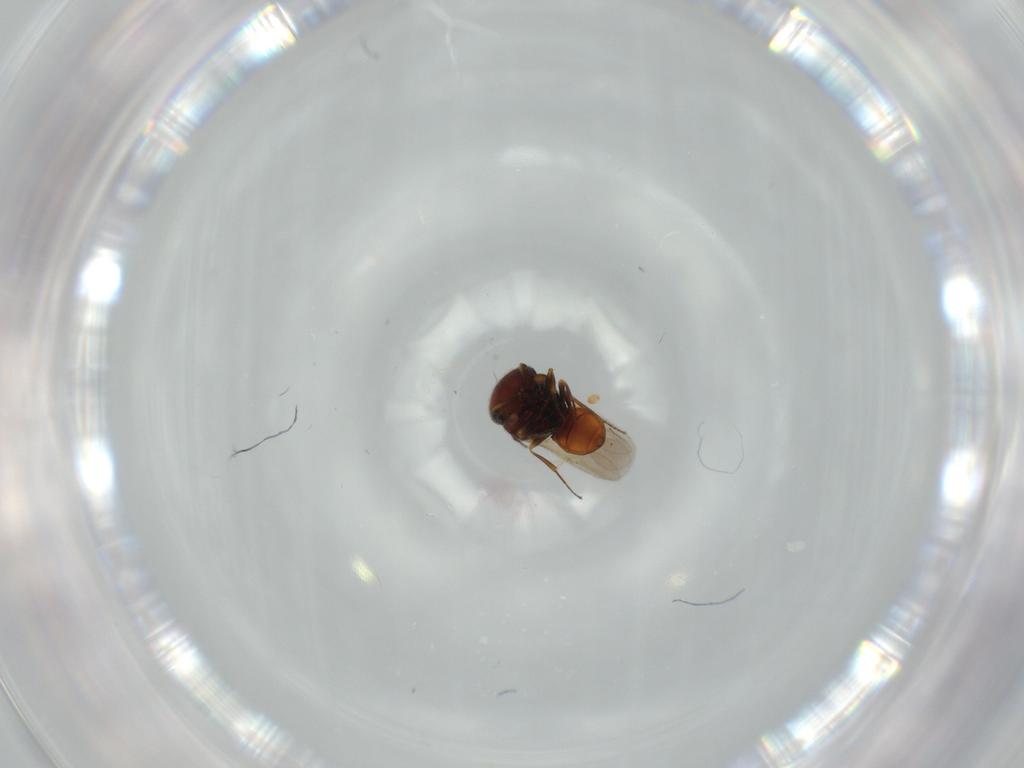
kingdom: Animalia
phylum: Arthropoda
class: Insecta
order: Hymenoptera
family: Scelionidae
